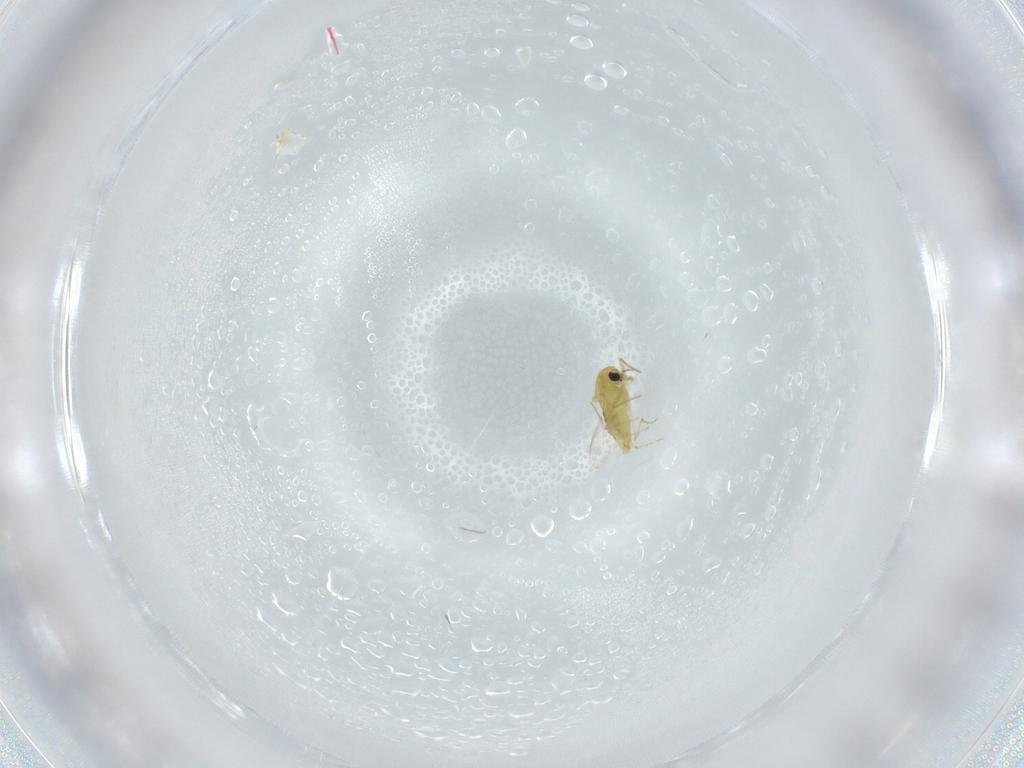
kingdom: Animalia
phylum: Arthropoda
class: Insecta
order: Diptera
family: Chironomidae
